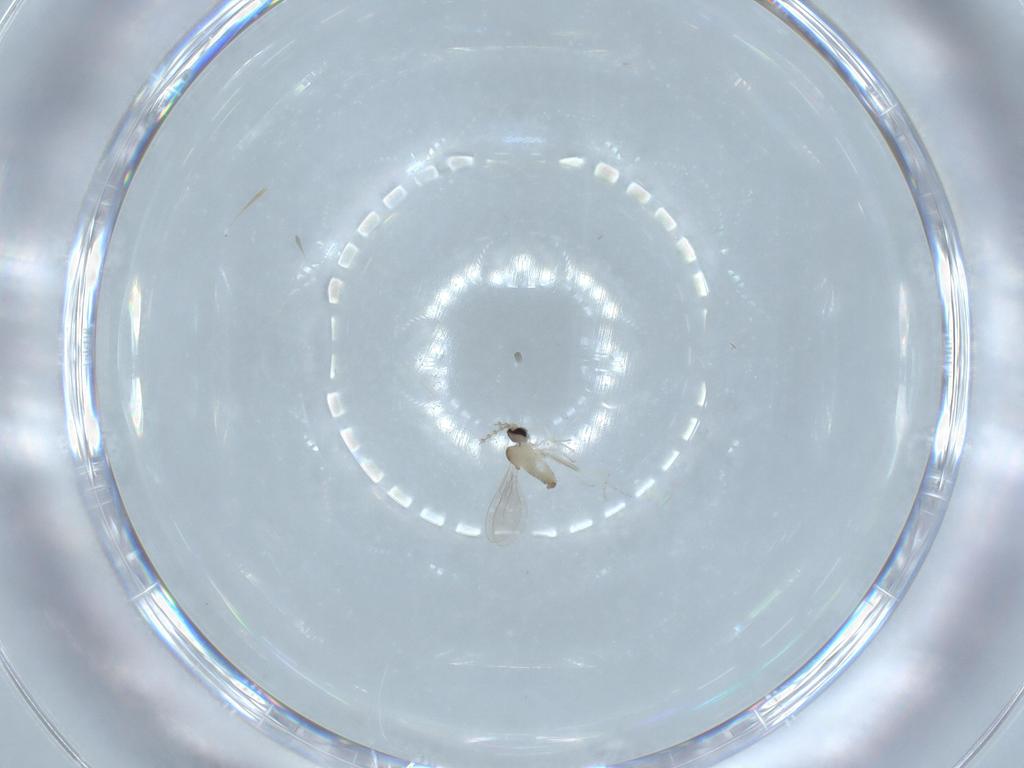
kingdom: Animalia
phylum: Arthropoda
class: Insecta
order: Diptera
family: Cecidomyiidae
